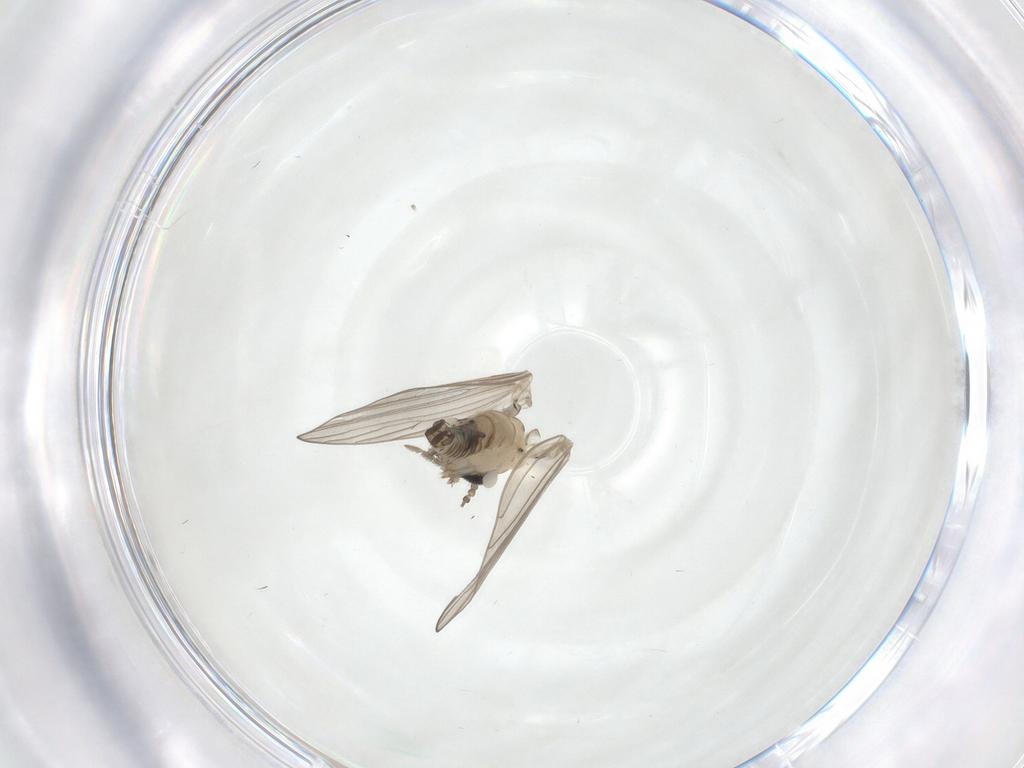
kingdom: Animalia
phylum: Arthropoda
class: Insecta
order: Diptera
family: Psychodidae
